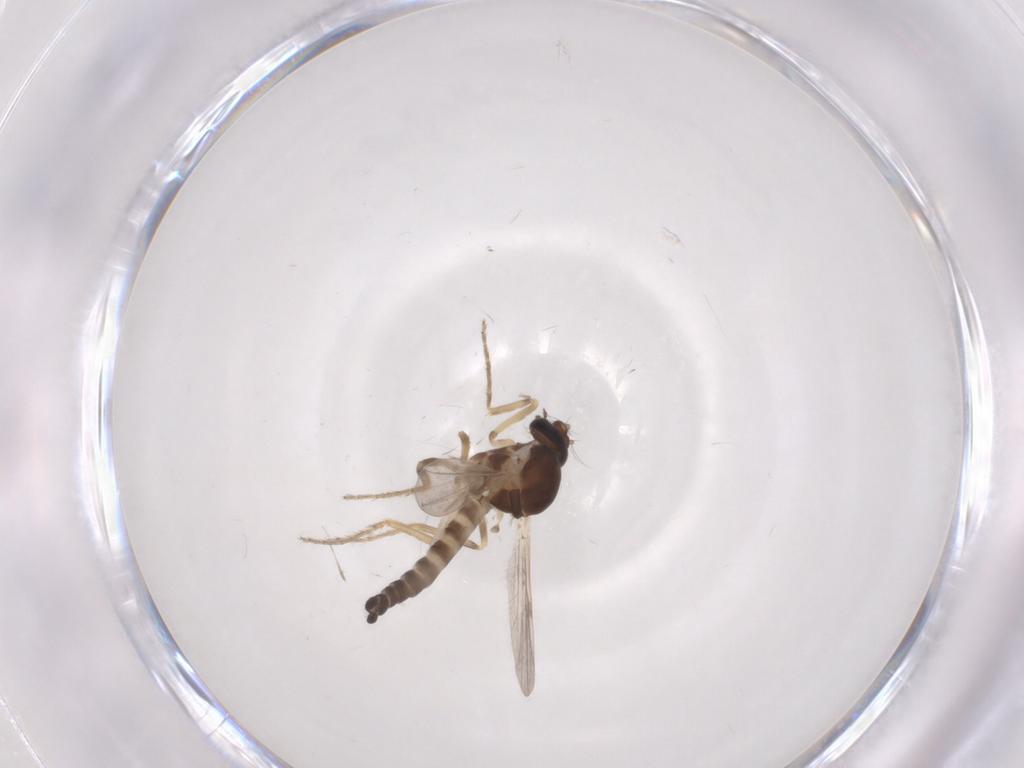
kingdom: Animalia
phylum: Arthropoda
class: Insecta
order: Diptera
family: Ceratopogonidae
